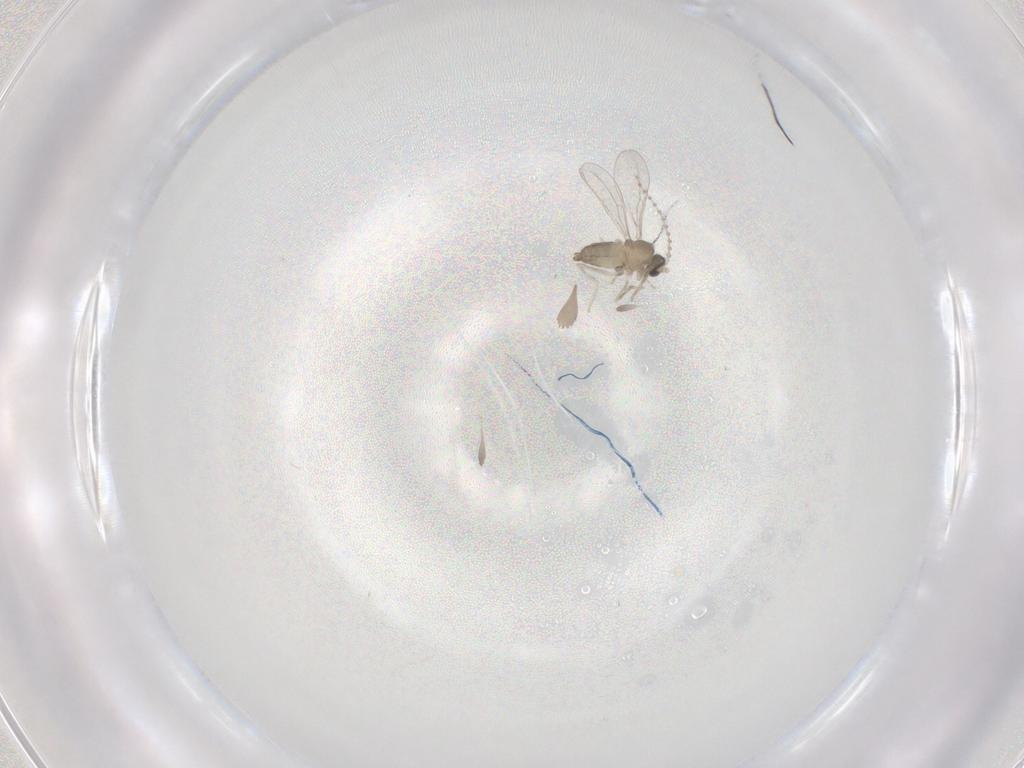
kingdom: Animalia
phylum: Arthropoda
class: Insecta
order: Diptera
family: Cecidomyiidae
